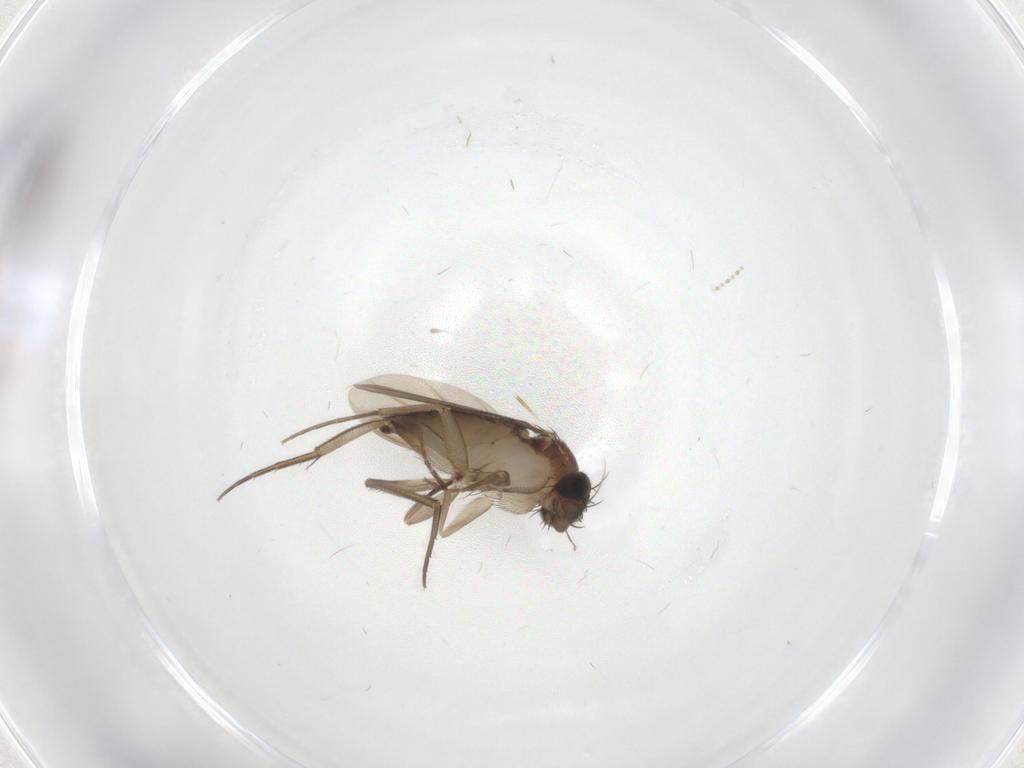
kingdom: Animalia
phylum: Arthropoda
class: Insecta
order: Diptera
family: Phoridae
